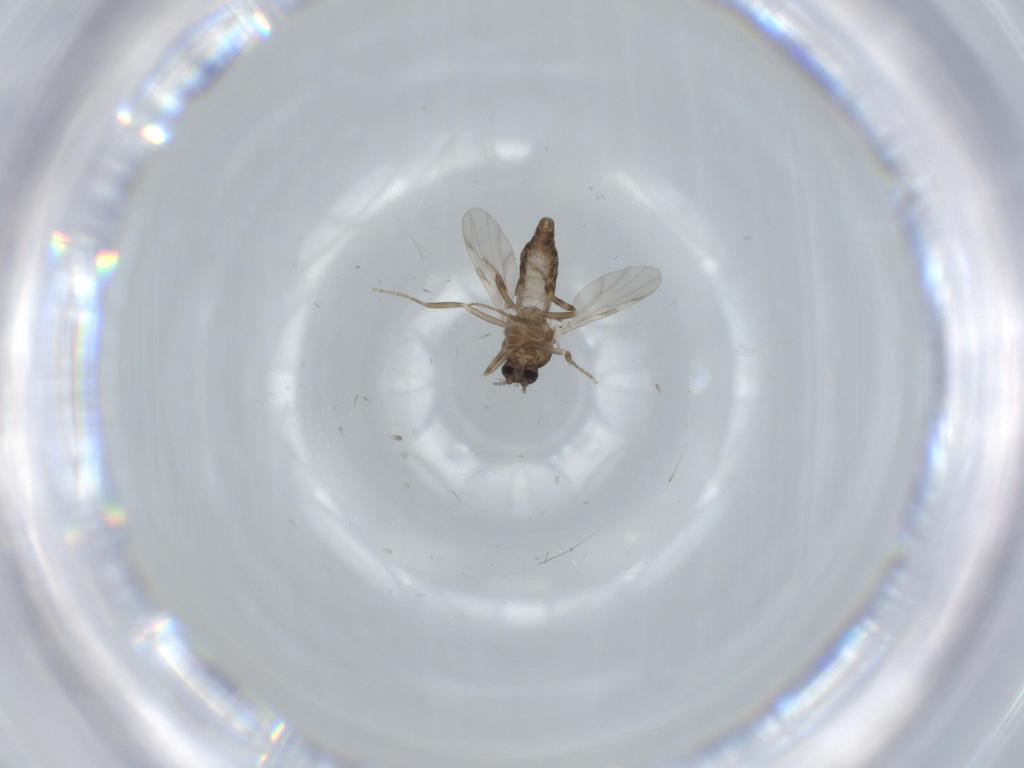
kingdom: Animalia
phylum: Arthropoda
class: Insecta
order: Diptera
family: Ceratopogonidae
